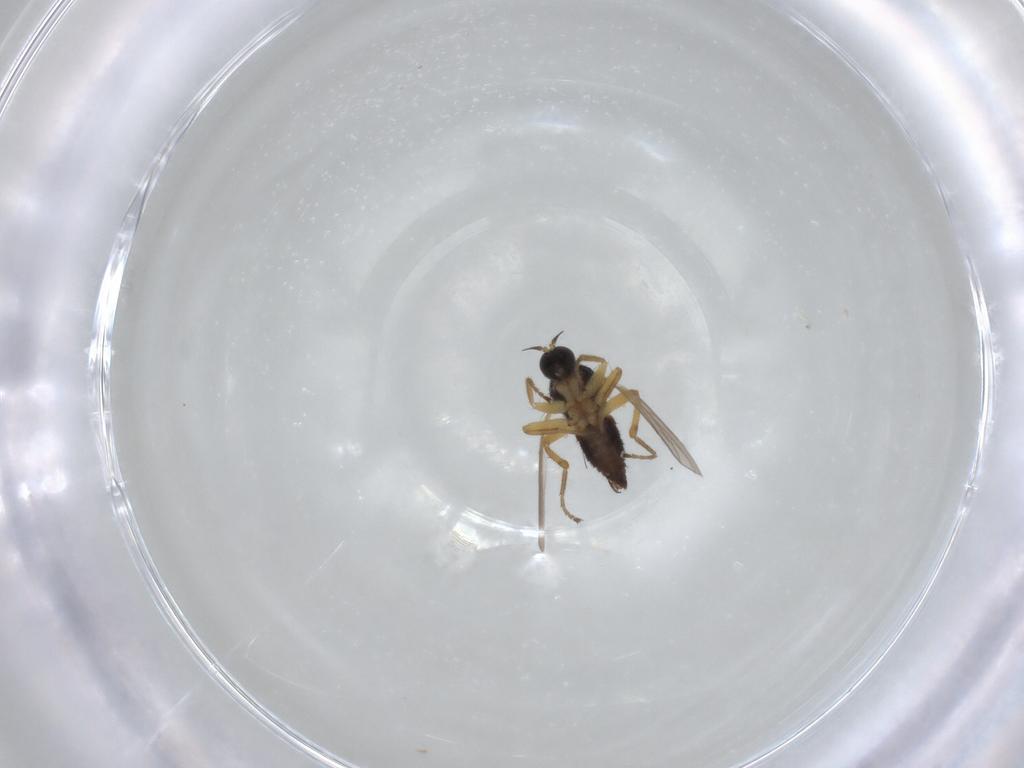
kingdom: Animalia
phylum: Arthropoda
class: Insecta
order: Diptera
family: Hybotidae
